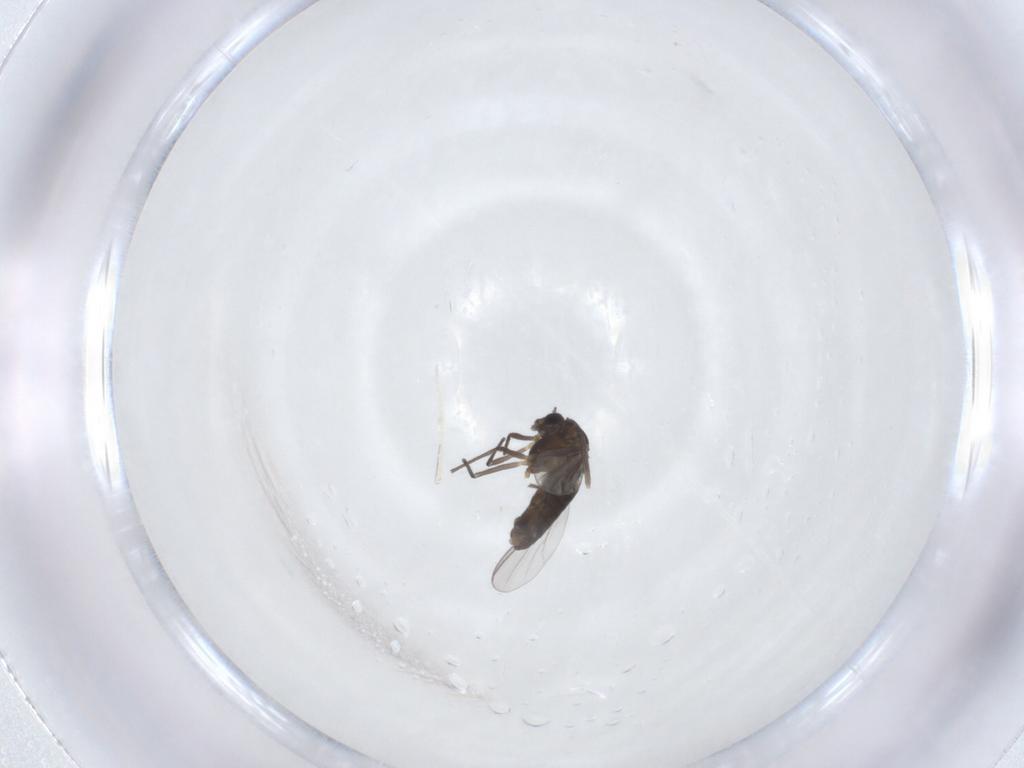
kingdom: Animalia
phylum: Arthropoda
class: Insecta
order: Diptera
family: Chironomidae
